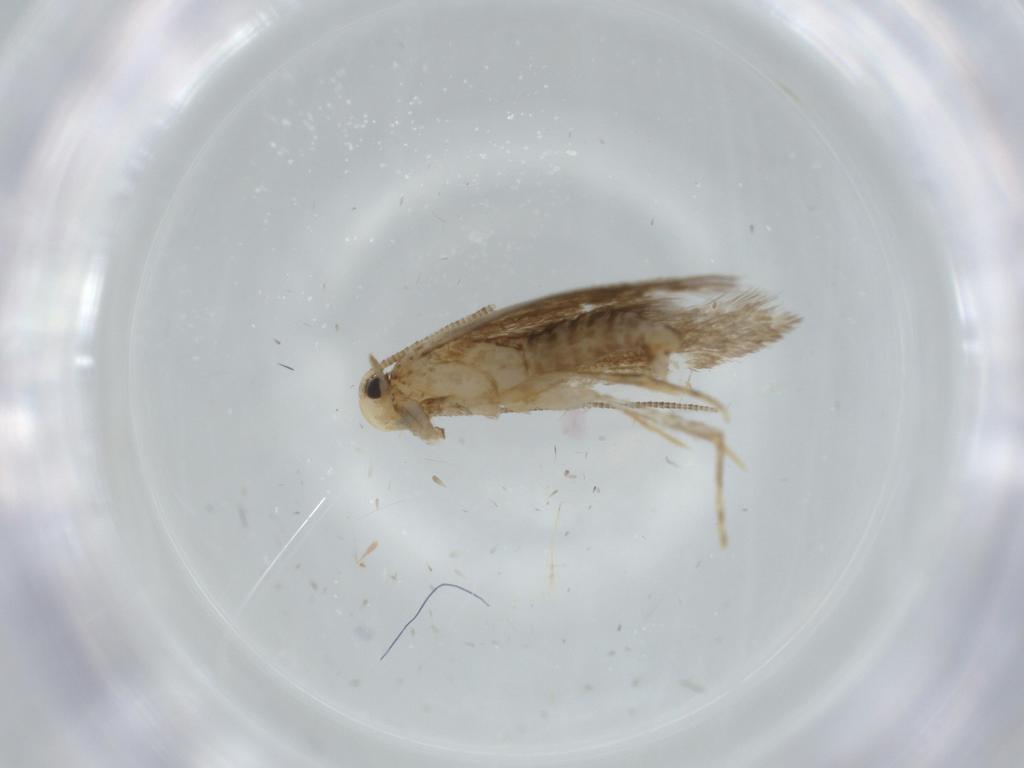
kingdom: Animalia
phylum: Arthropoda
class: Insecta
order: Lepidoptera
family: Tineidae
